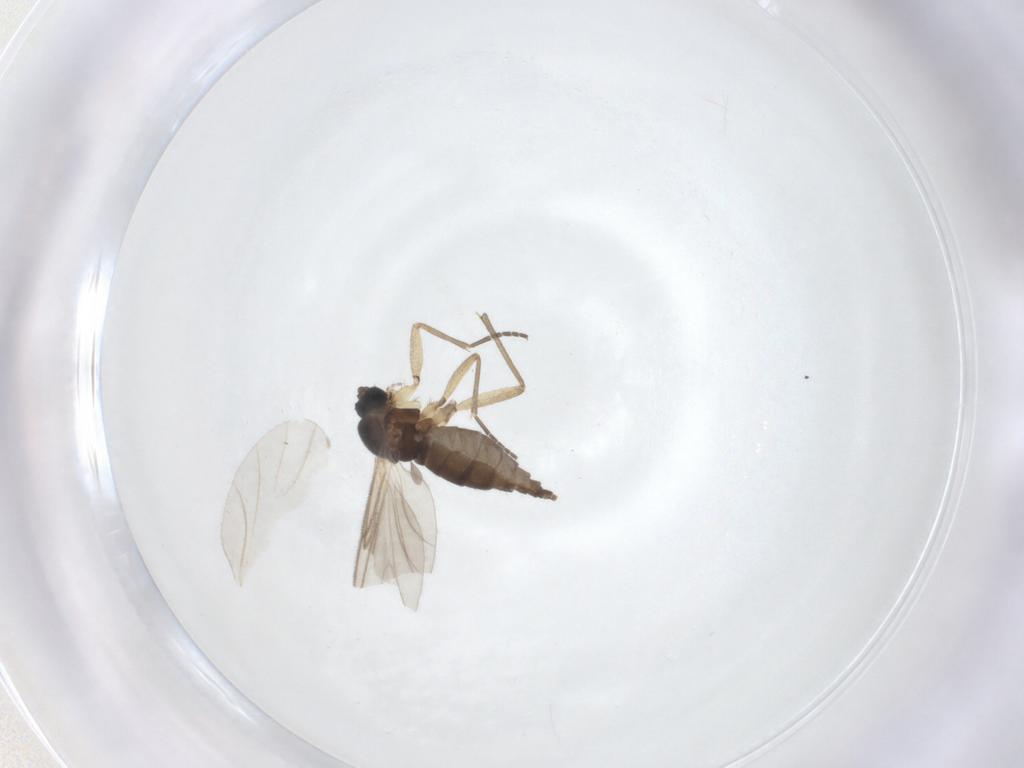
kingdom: Animalia
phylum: Arthropoda
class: Insecta
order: Diptera
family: Sciaridae
